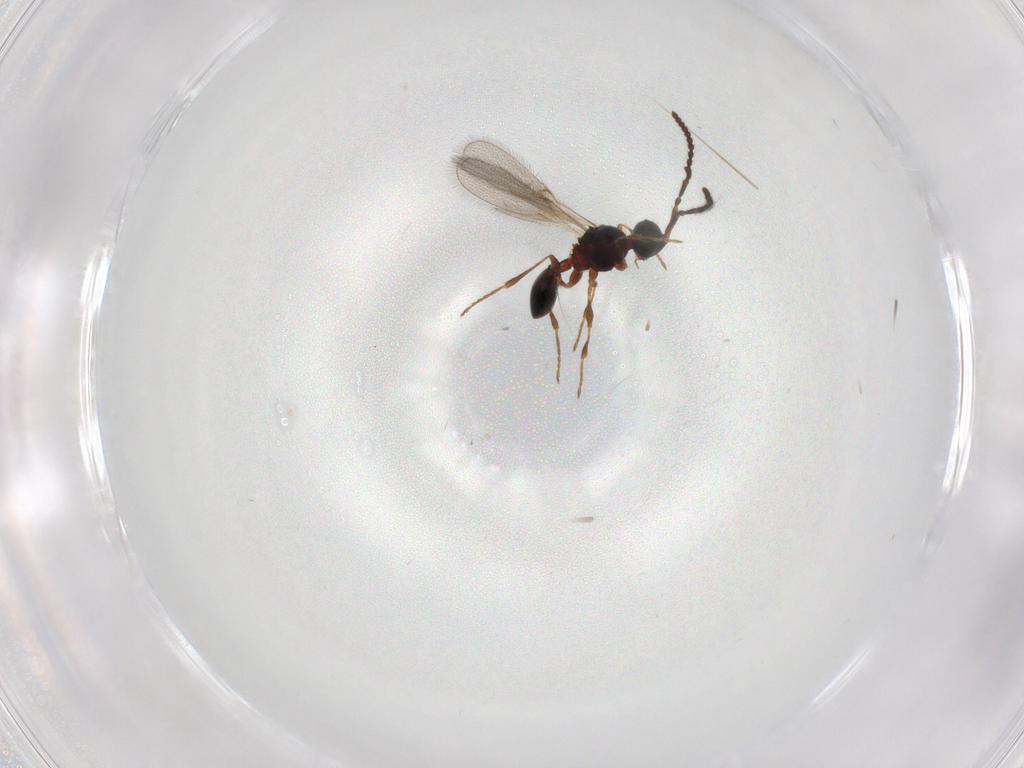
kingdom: Animalia
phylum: Arthropoda
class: Insecta
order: Hymenoptera
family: Diapriidae
